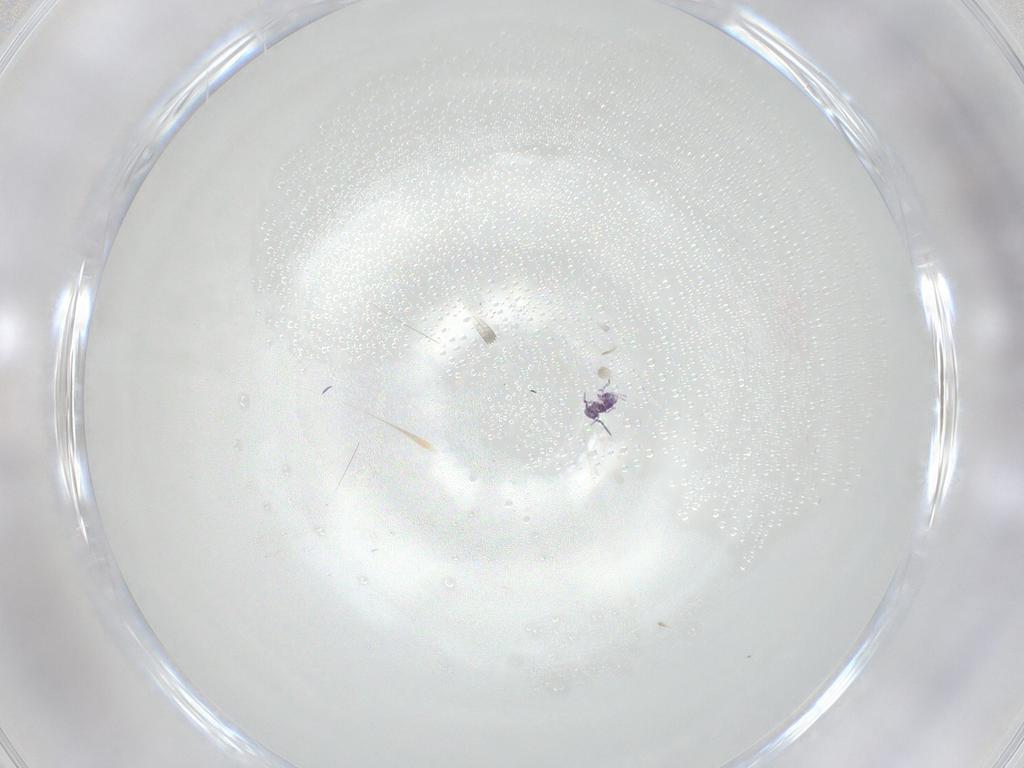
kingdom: Animalia
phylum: Arthropoda
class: Insecta
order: Hymenoptera
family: Aphelinidae
